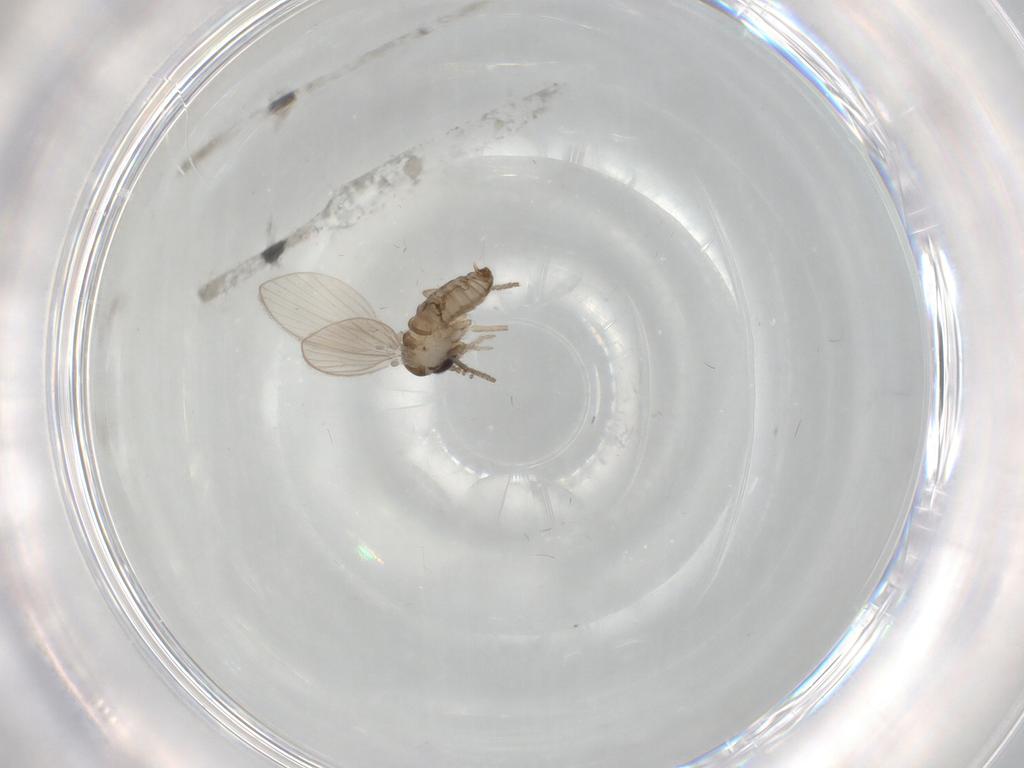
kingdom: Animalia
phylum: Arthropoda
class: Insecta
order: Diptera
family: Psychodidae
